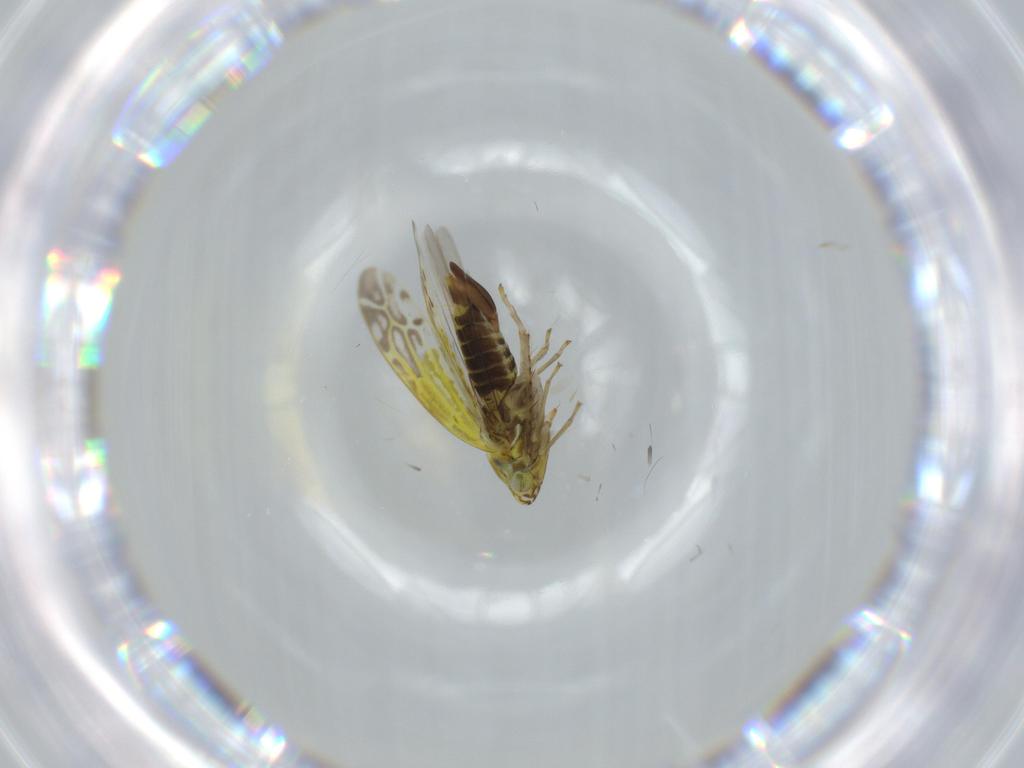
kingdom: Animalia
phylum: Arthropoda
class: Insecta
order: Hemiptera
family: Cicadellidae
